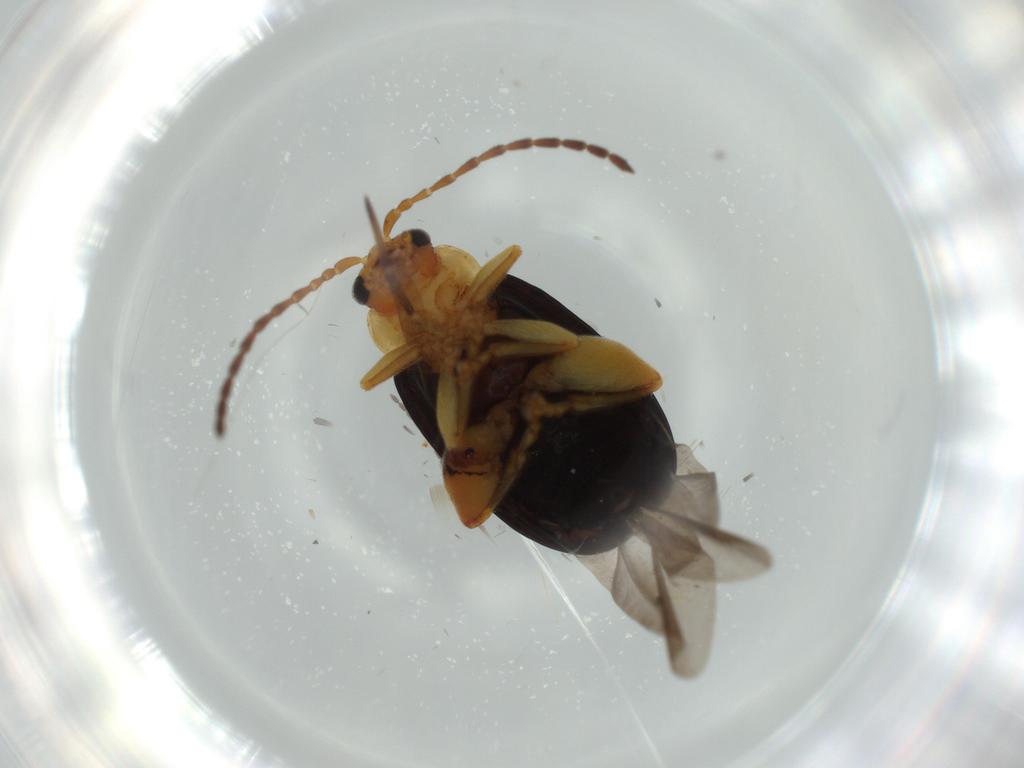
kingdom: Animalia
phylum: Arthropoda
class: Insecta
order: Coleoptera
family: Chrysomelidae
